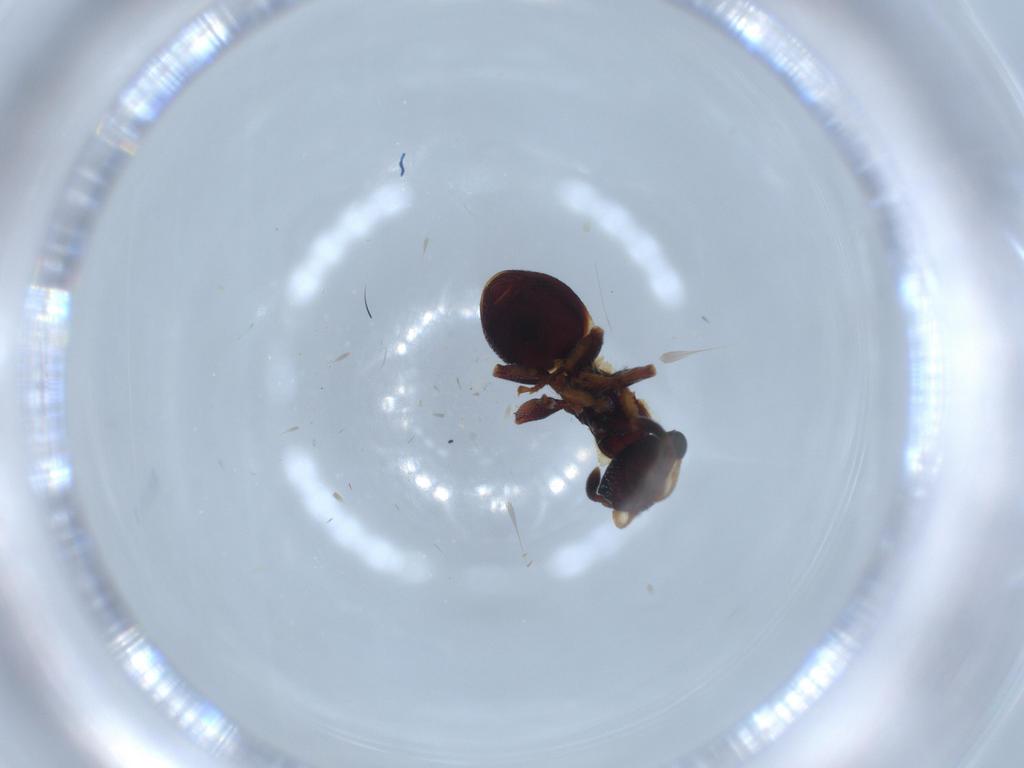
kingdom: Animalia
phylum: Arthropoda
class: Insecta
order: Hymenoptera
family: Formicidae
